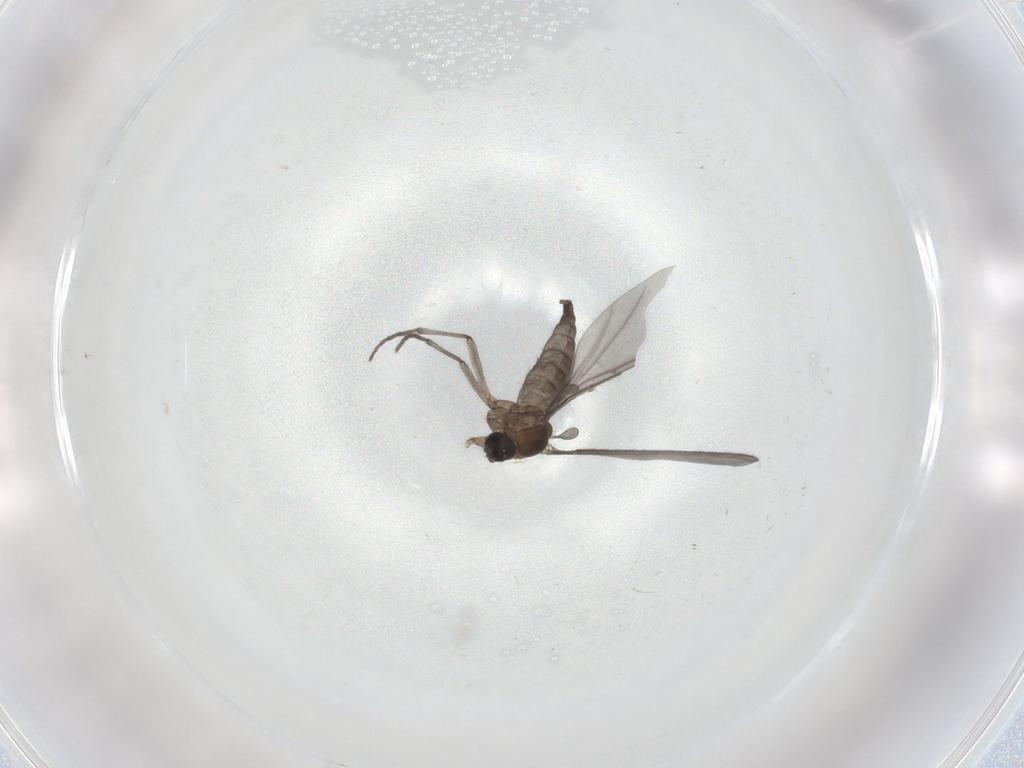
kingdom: Animalia
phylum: Arthropoda
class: Insecta
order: Diptera
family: Sciaridae
